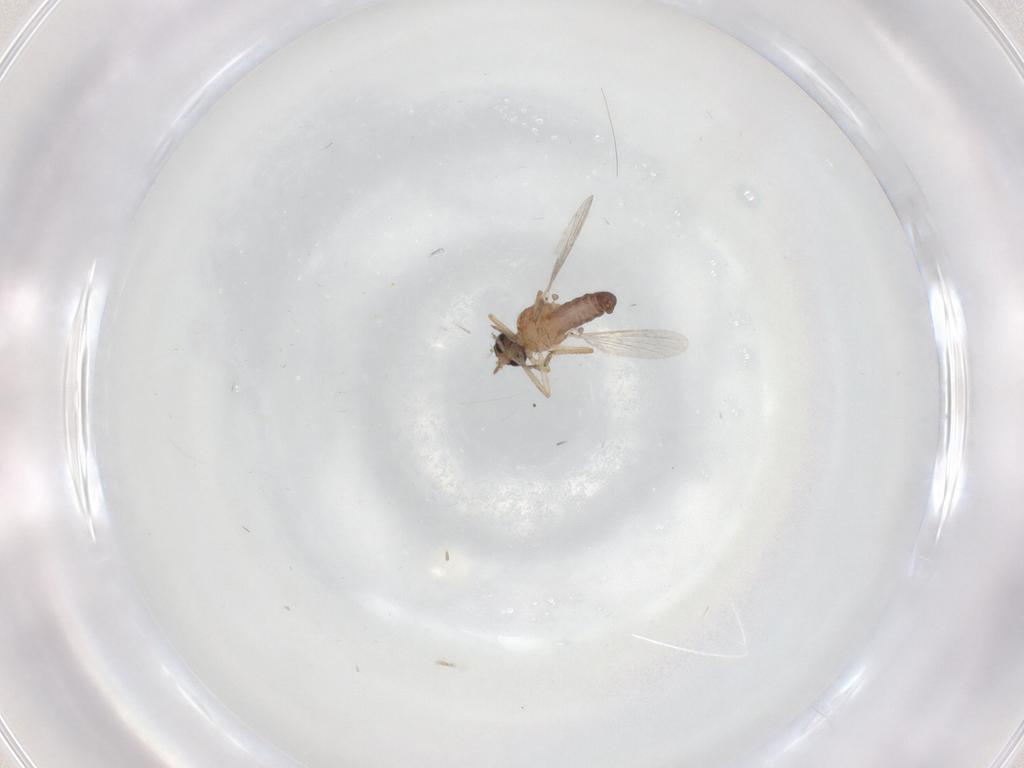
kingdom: Animalia
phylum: Arthropoda
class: Insecta
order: Diptera
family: Ceratopogonidae
